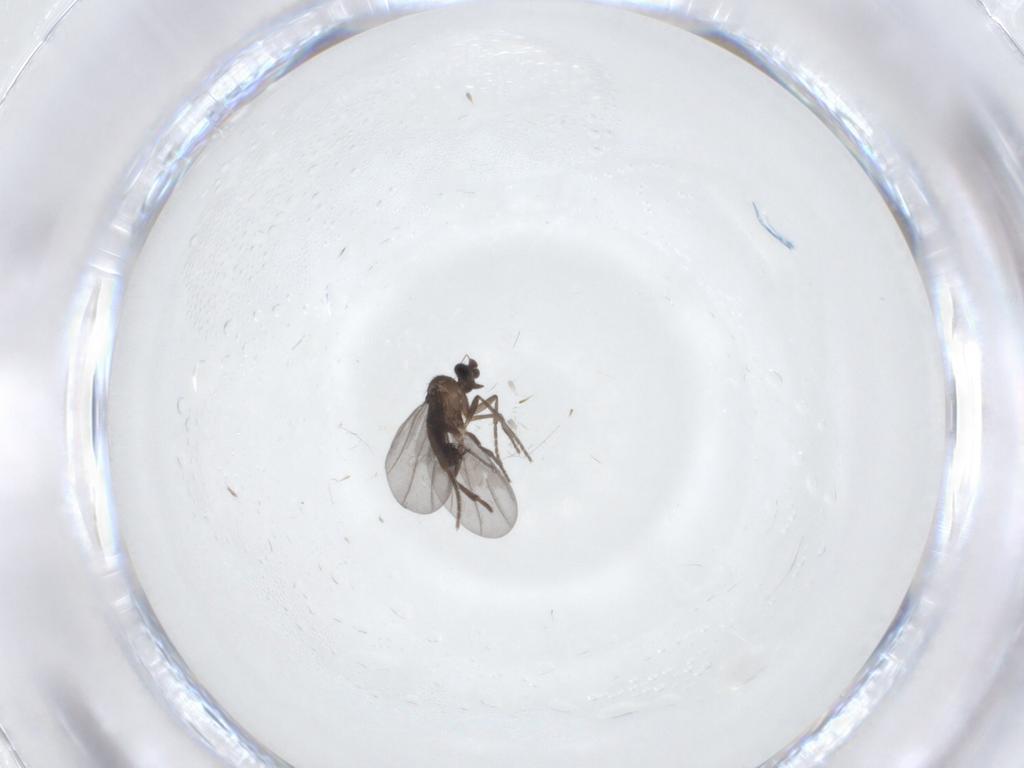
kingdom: Animalia
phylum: Arthropoda
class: Insecta
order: Diptera
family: Phoridae
